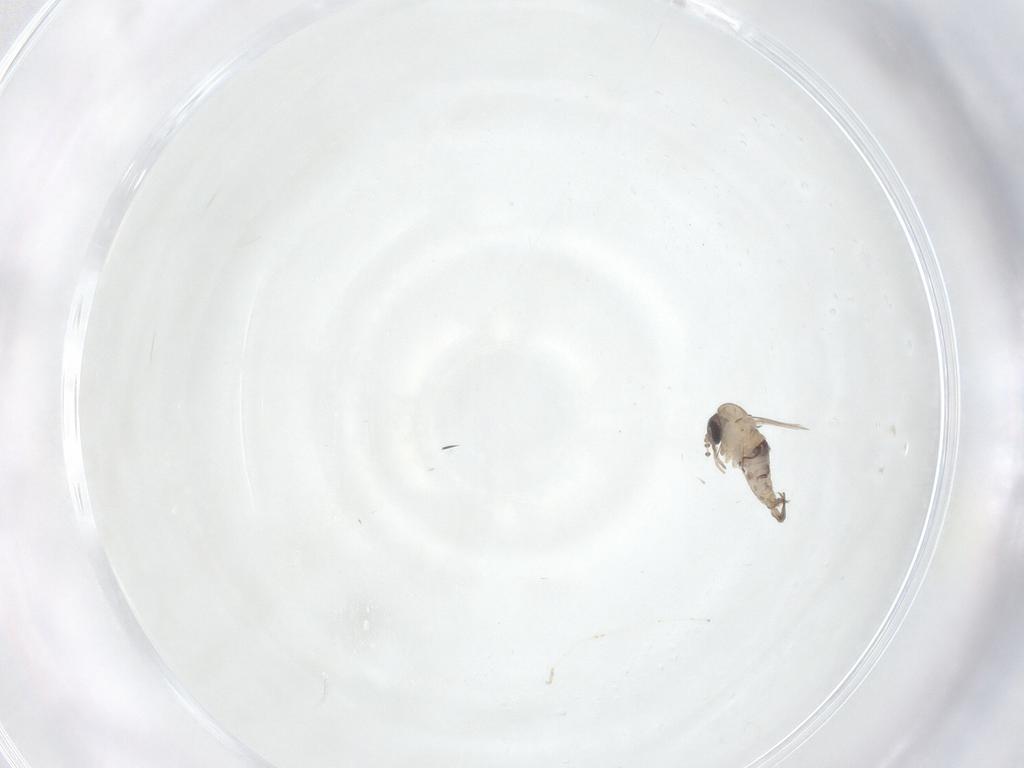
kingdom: Animalia
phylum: Arthropoda
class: Insecta
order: Diptera
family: Psychodidae
